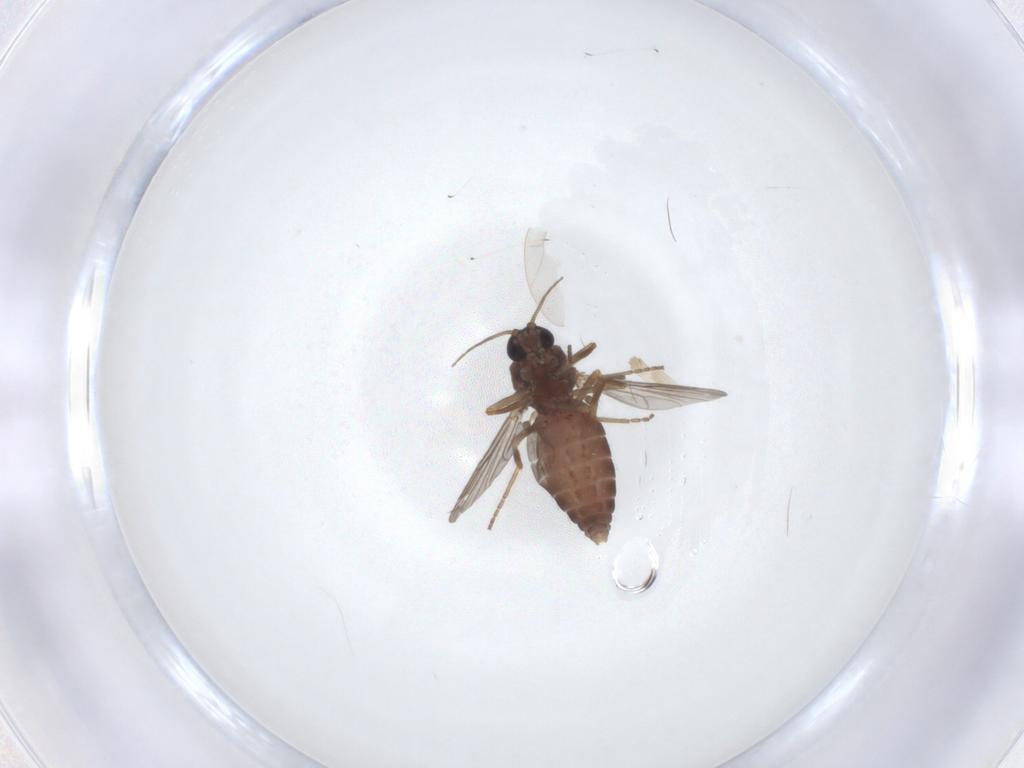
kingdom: Animalia
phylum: Arthropoda
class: Insecta
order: Diptera
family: Ceratopogonidae
